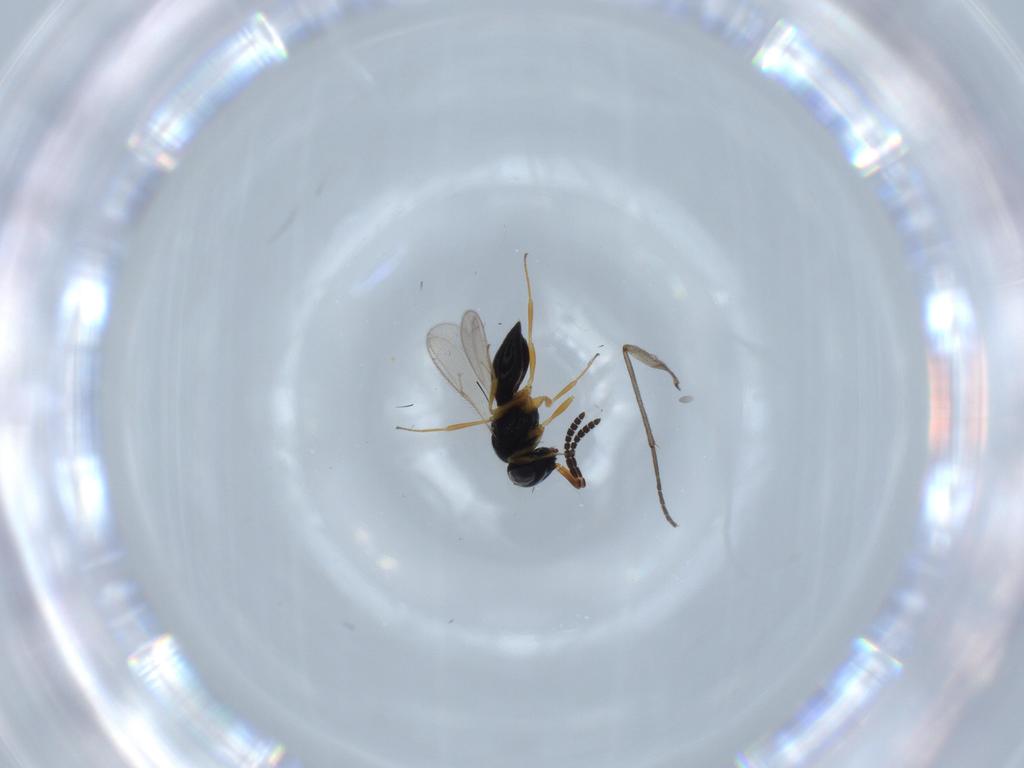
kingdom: Animalia
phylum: Arthropoda
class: Insecta
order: Hymenoptera
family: Scelionidae
